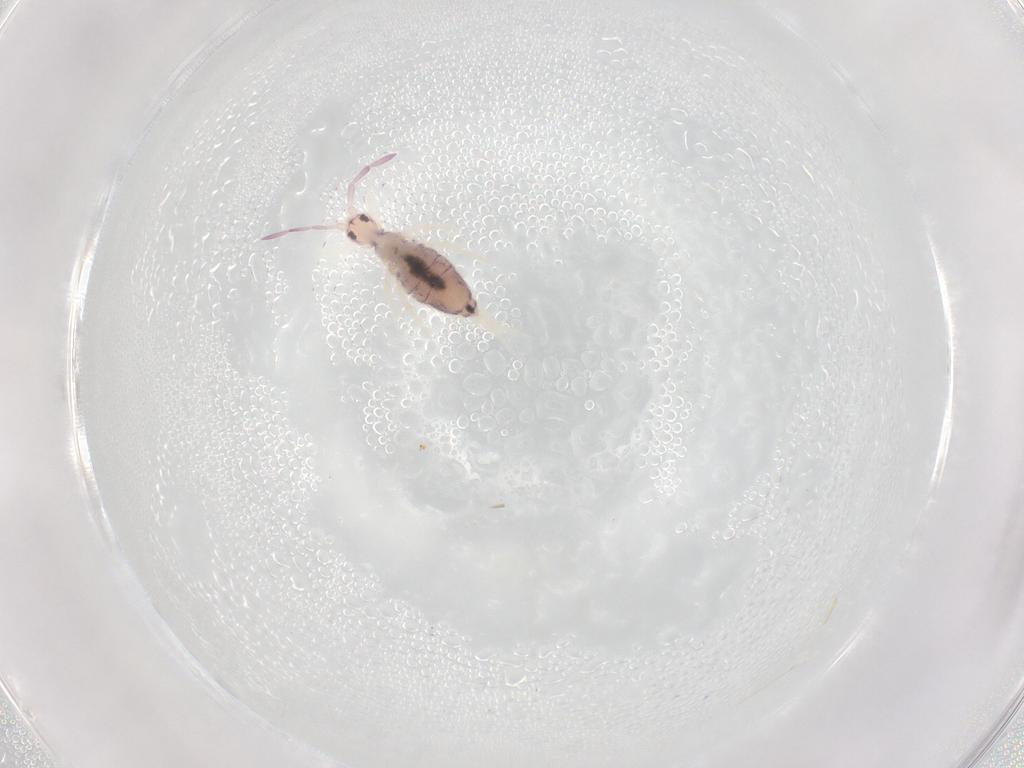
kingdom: Animalia
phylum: Arthropoda
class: Collembola
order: Entomobryomorpha
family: Entomobryidae
